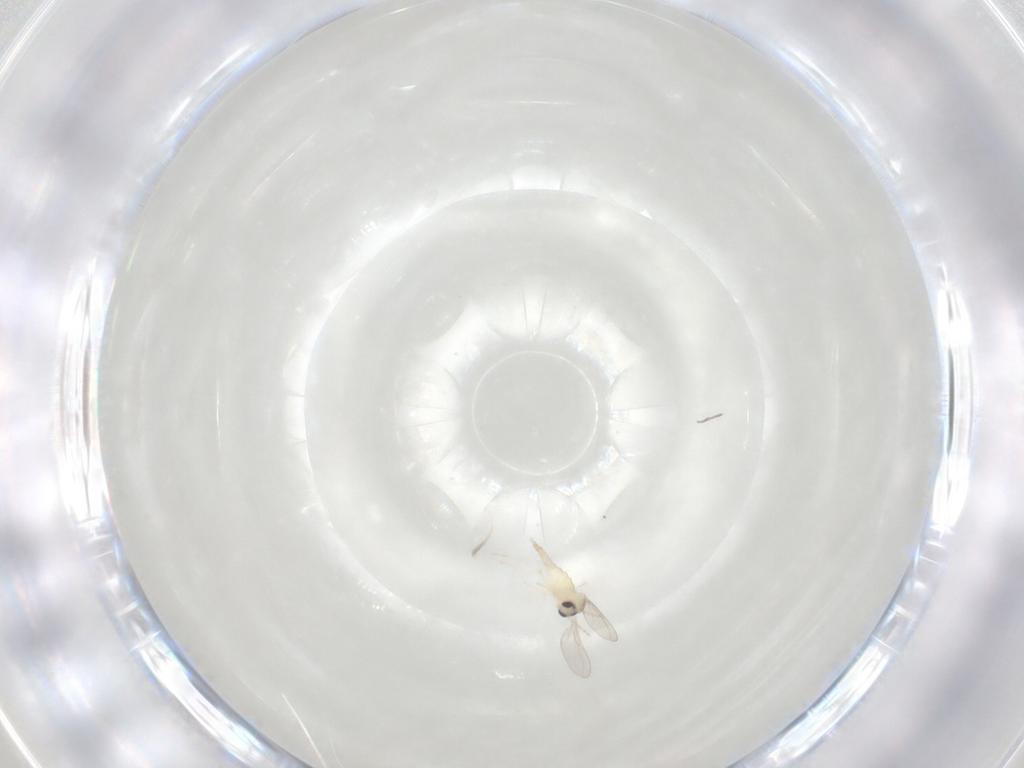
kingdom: Animalia
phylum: Arthropoda
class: Insecta
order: Diptera
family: Cecidomyiidae
